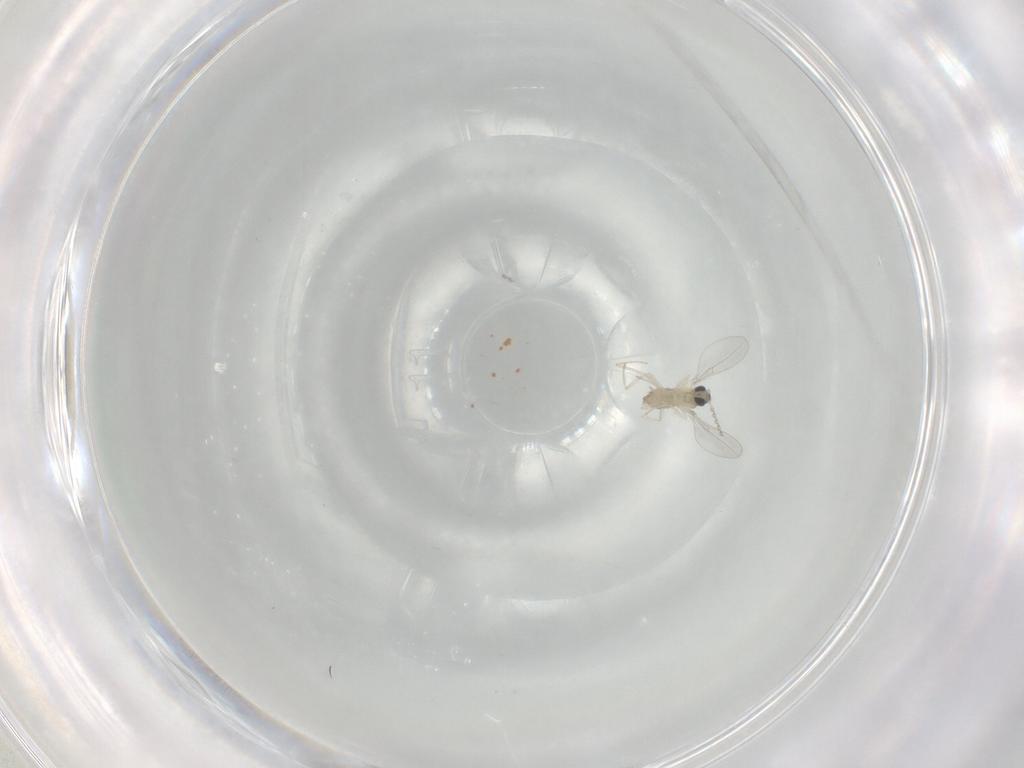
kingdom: Animalia
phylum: Arthropoda
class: Insecta
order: Diptera
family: Cecidomyiidae
